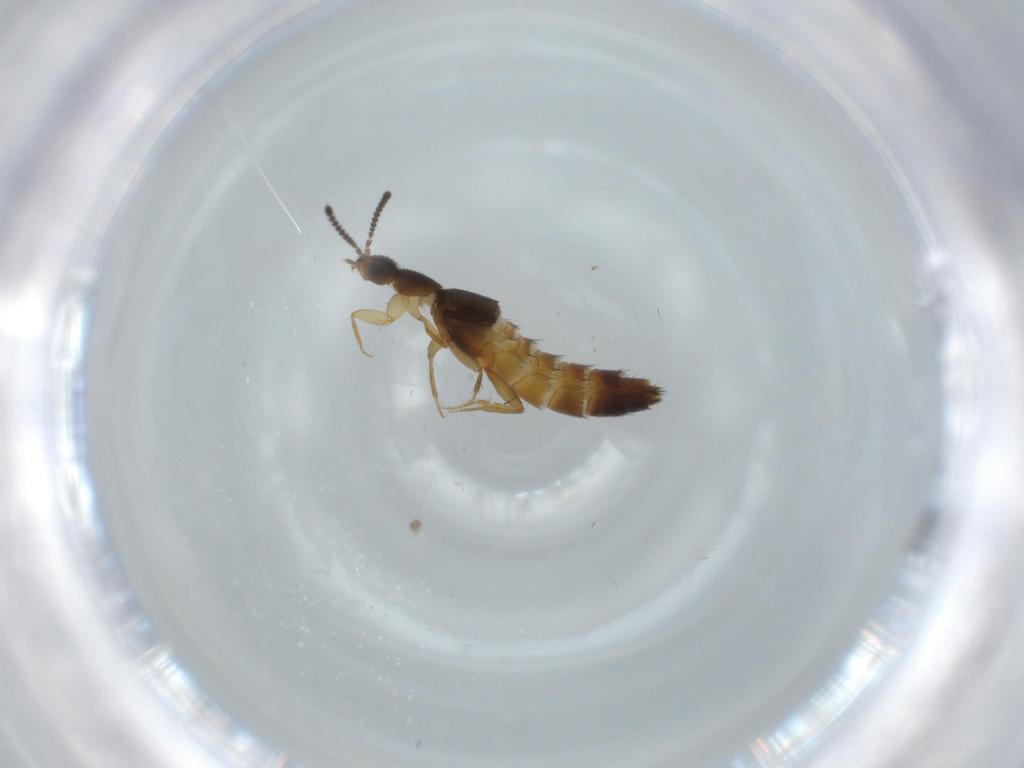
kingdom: Animalia
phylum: Arthropoda
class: Insecta
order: Coleoptera
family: Staphylinidae
